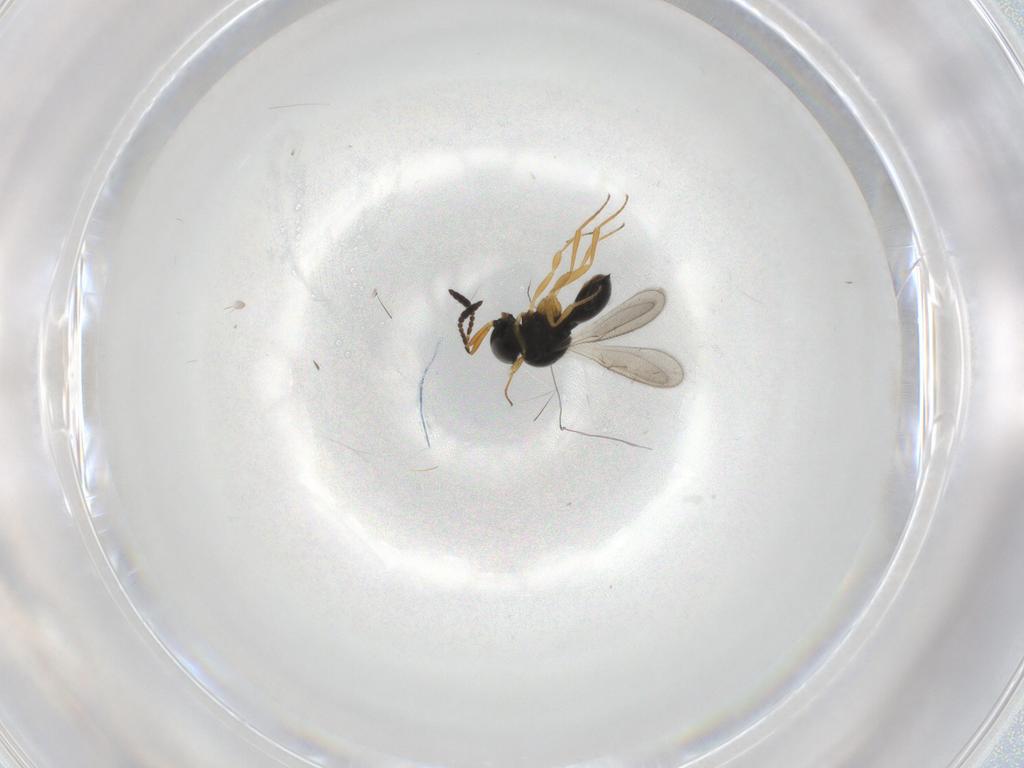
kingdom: Animalia
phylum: Arthropoda
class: Insecta
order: Hymenoptera
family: Scelionidae
